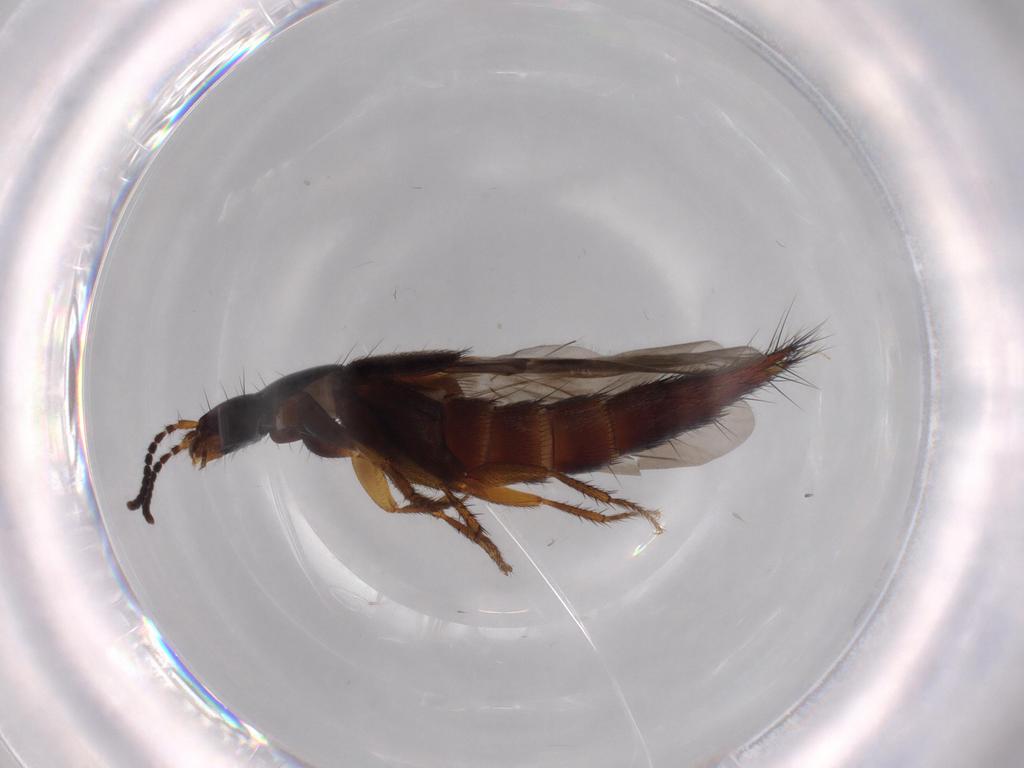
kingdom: Animalia
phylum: Arthropoda
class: Insecta
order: Coleoptera
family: Staphylinidae
